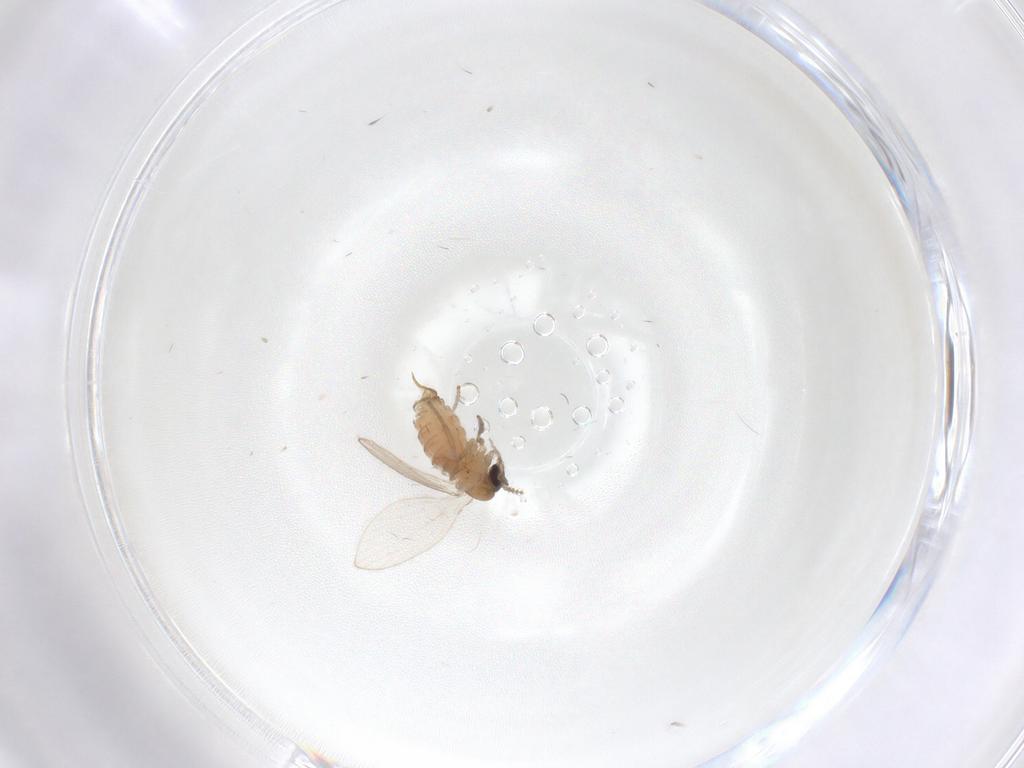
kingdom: Animalia
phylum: Arthropoda
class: Insecta
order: Diptera
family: Psychodidae
